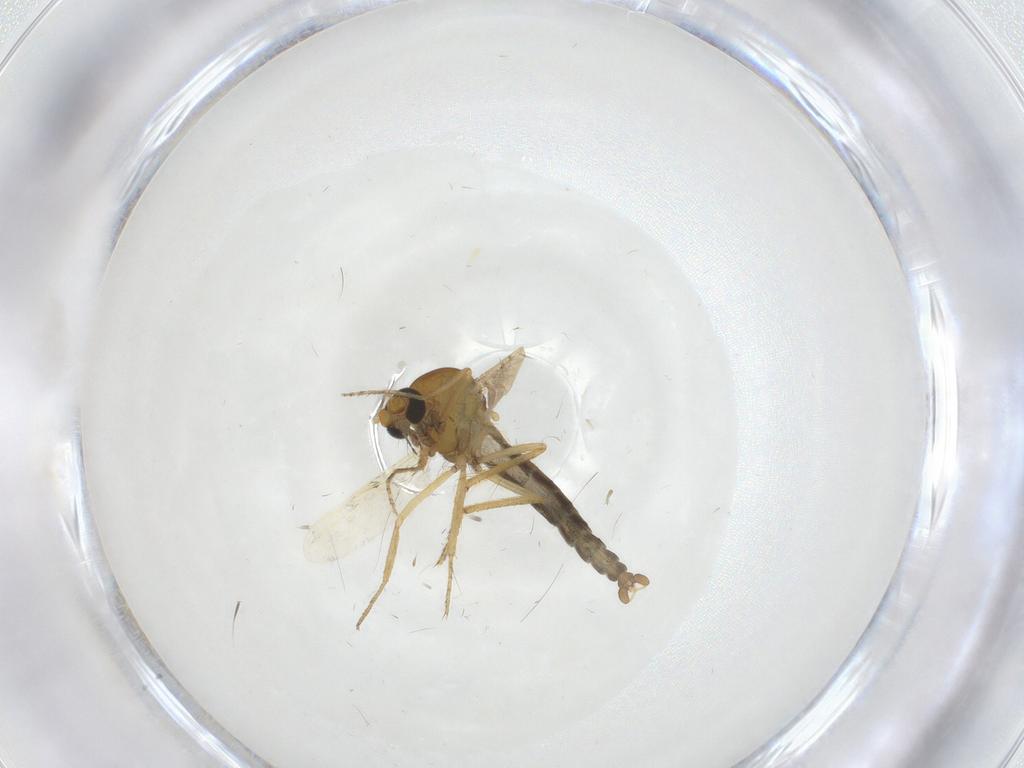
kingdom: Animalia
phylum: Arthropoda
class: Insecta
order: Diptera
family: Ceratopogonidae
